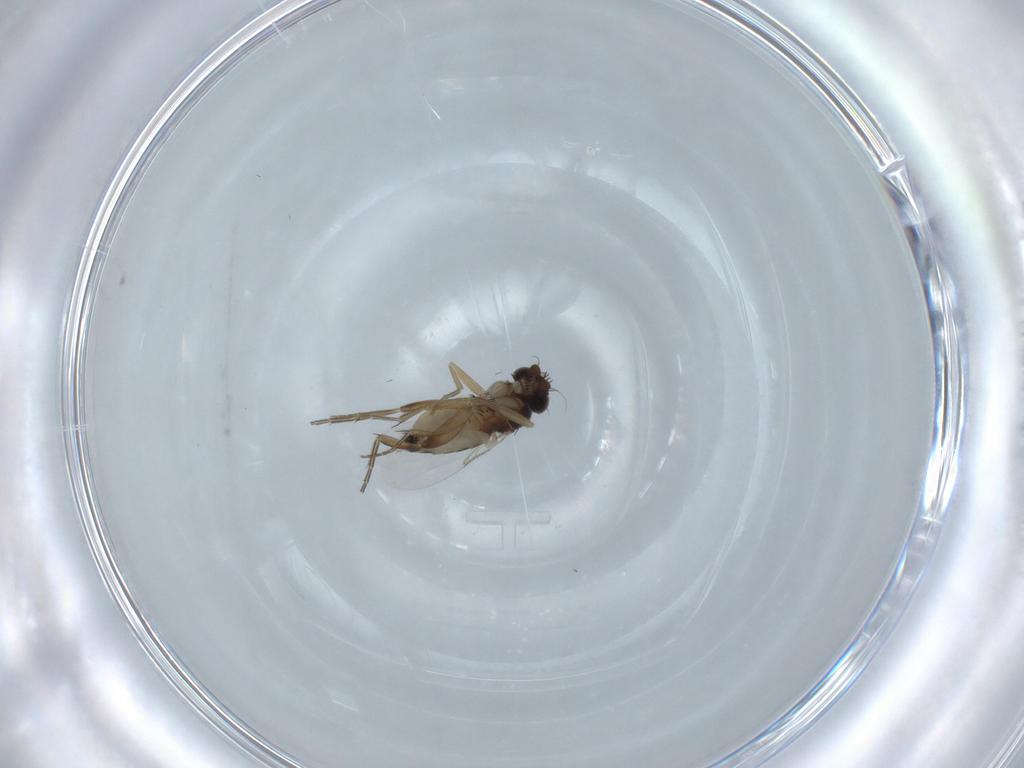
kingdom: Animalia
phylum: Arthropoda
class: Insecta
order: Diptera
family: Phoridae
